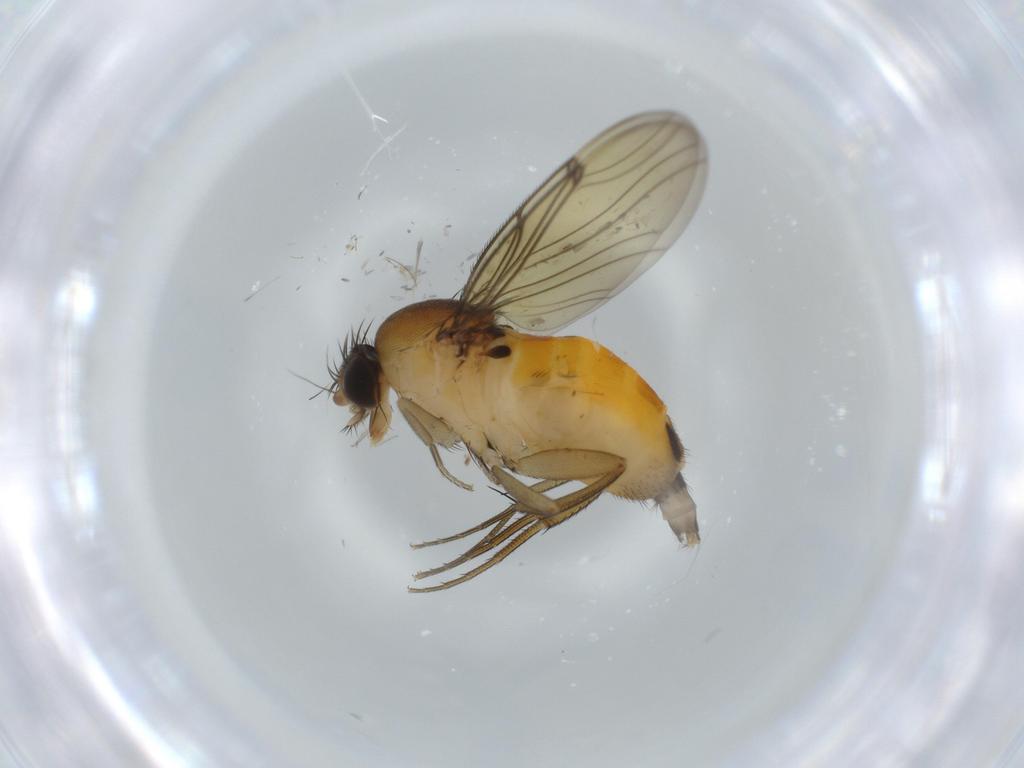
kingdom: Animalia
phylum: Arthropoda
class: Insecta
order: Diptera
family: Phoridae
